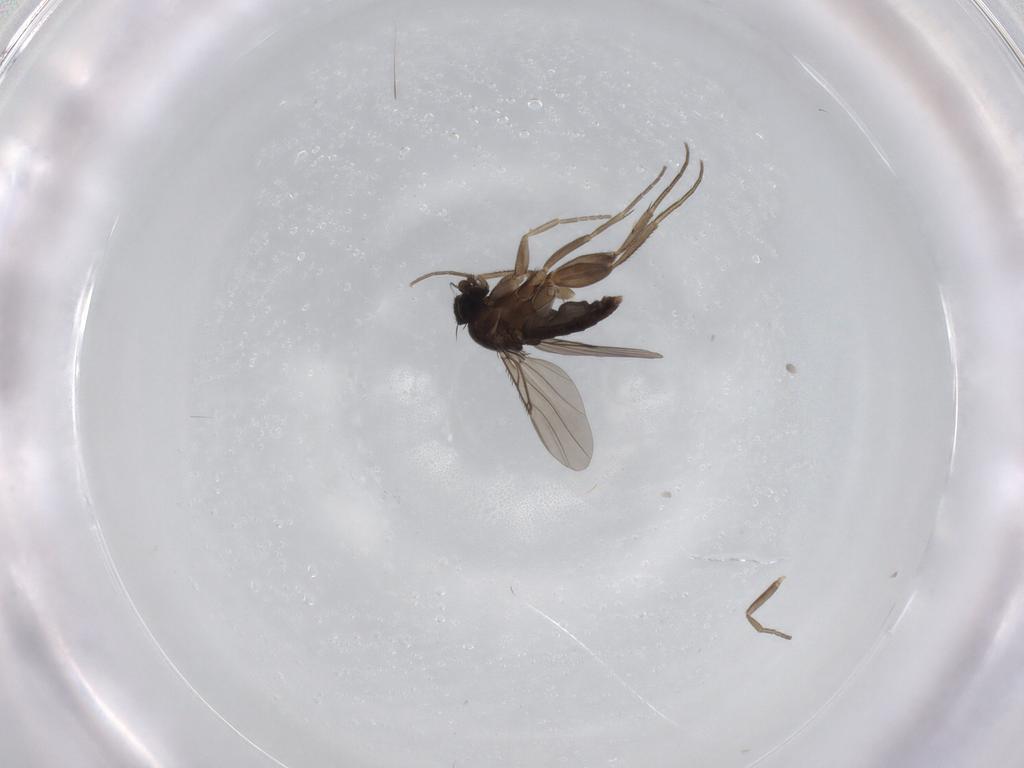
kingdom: Animalia
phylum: Arthropoda
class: Insecta
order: Diptera
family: Phoridae
